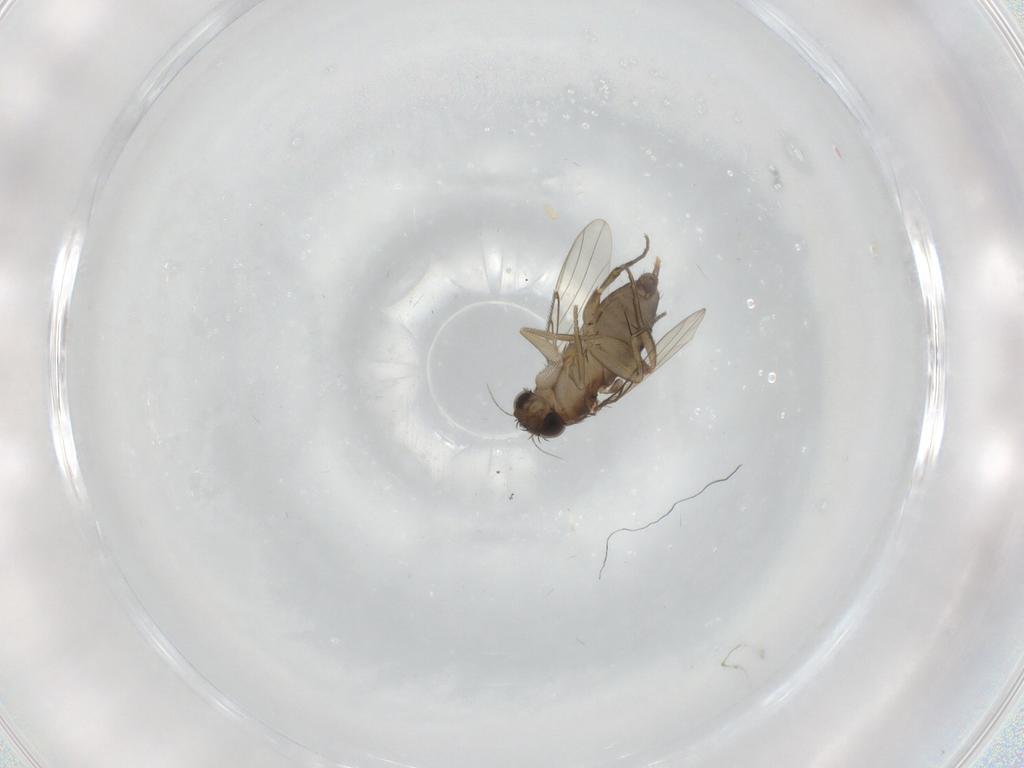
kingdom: Animalia
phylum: Arthropoda
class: Insecta
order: Diptera
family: Phoridae
